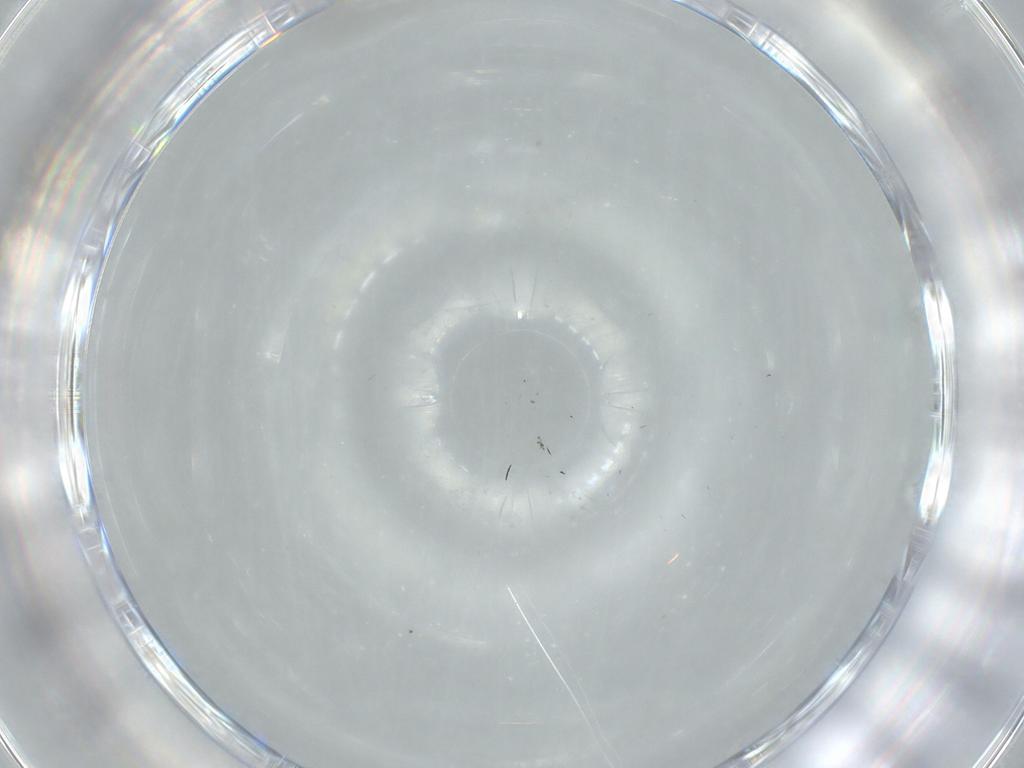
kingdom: Animalia
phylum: Arthropoda
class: Insecta
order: Diptera
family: Cecidomyiidae
